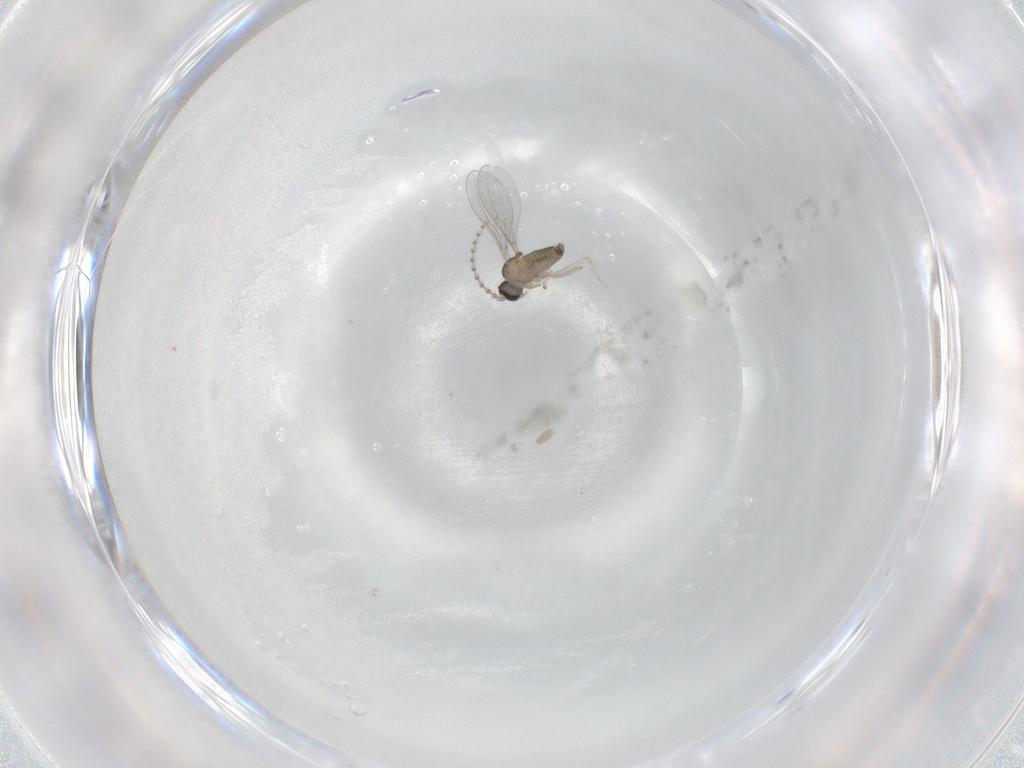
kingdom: Animalia
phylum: Arthropoda
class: Insecta
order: Diptera
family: Cecidomyiidae
